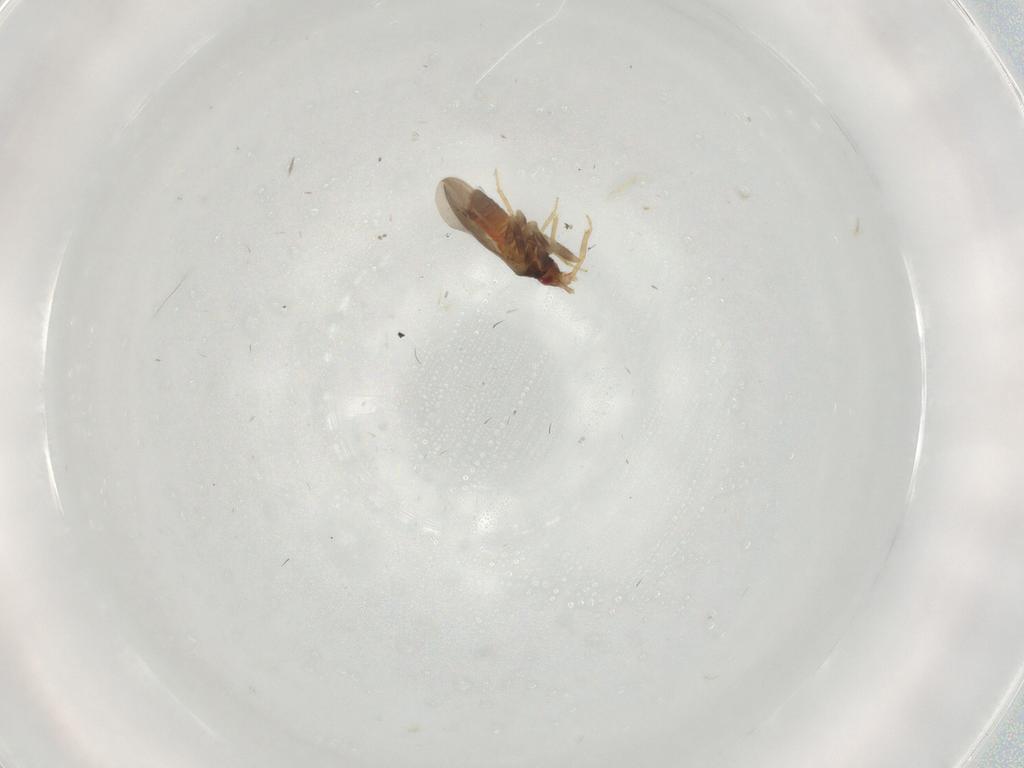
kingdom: Animalia
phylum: Arthropoda
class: Insecta
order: Hemiptera
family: Ceratocombidae
